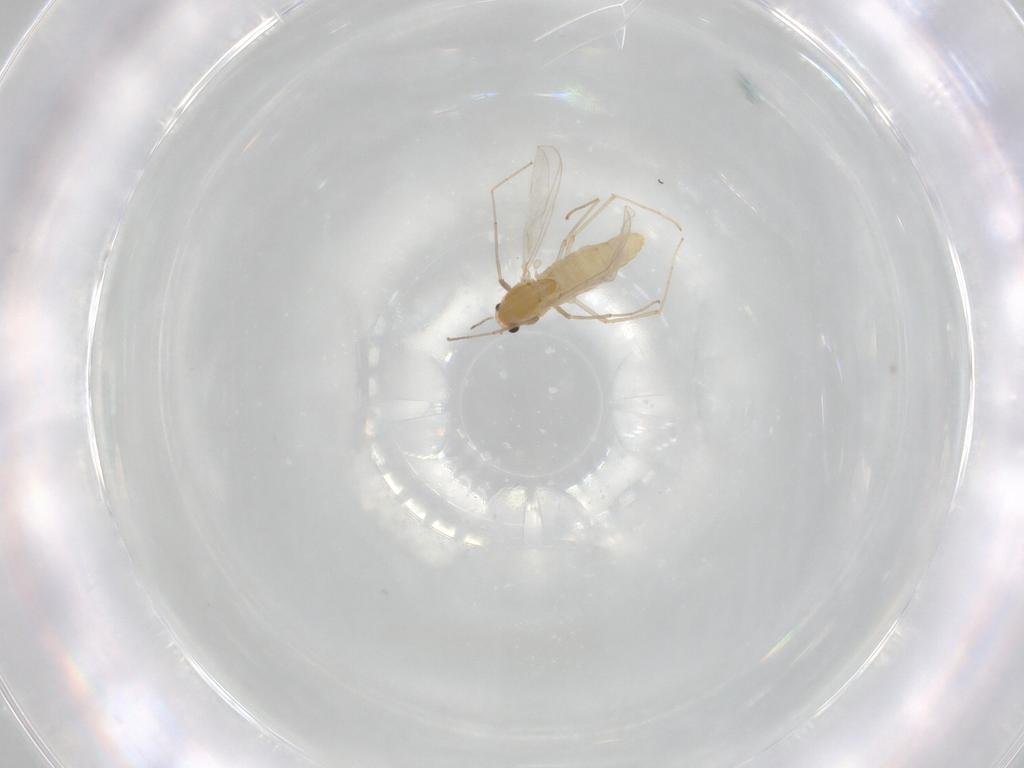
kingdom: Animalia
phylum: Arthropoda
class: Insecta
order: Diptera
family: Chironomidae
